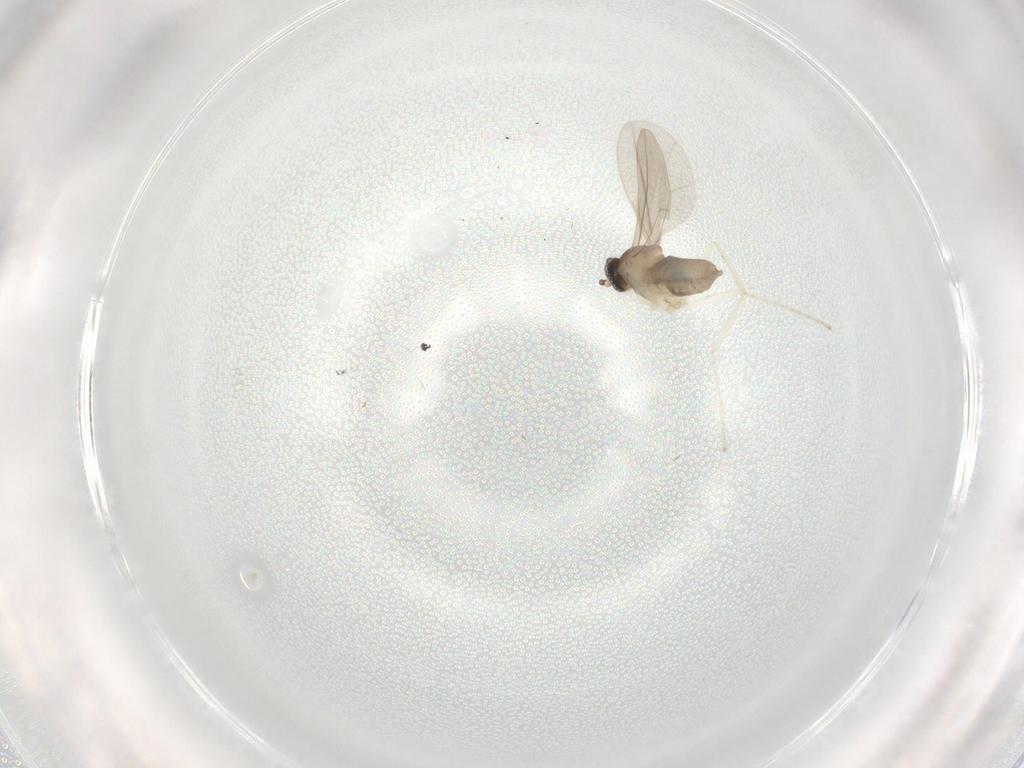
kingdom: Animalia
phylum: Arthropoda
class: Insecta
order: Diptera
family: Cecidomyiidae
